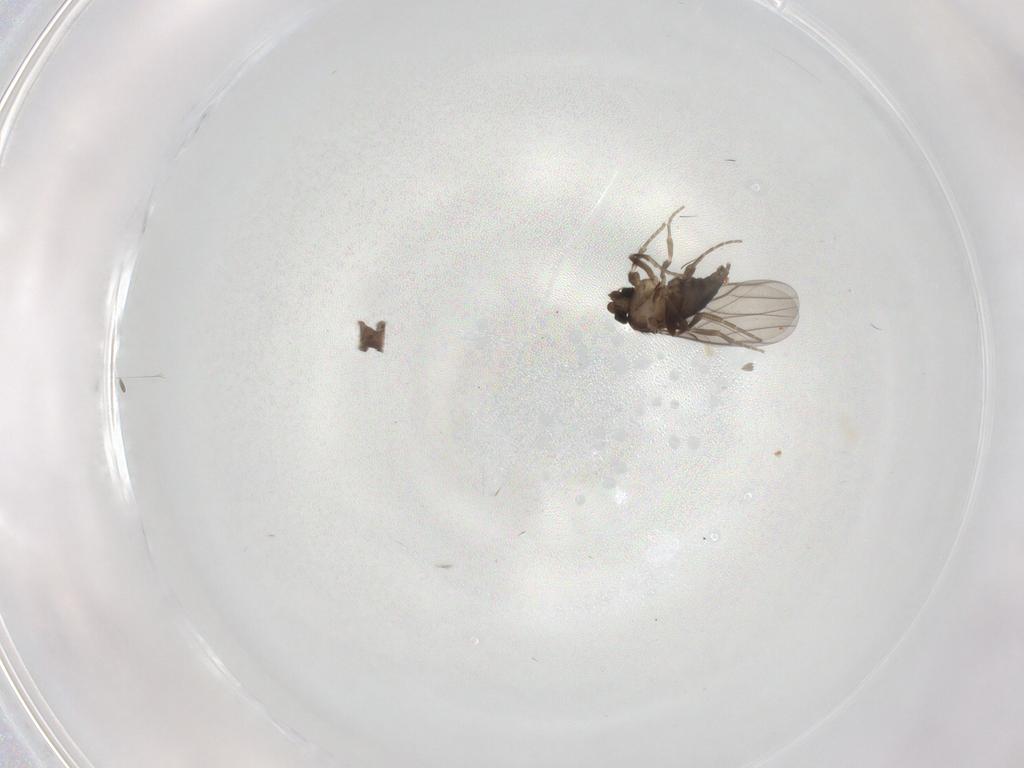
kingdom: Animalia
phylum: Arthropoda
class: Insecta
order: Diptera
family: Phoridae
